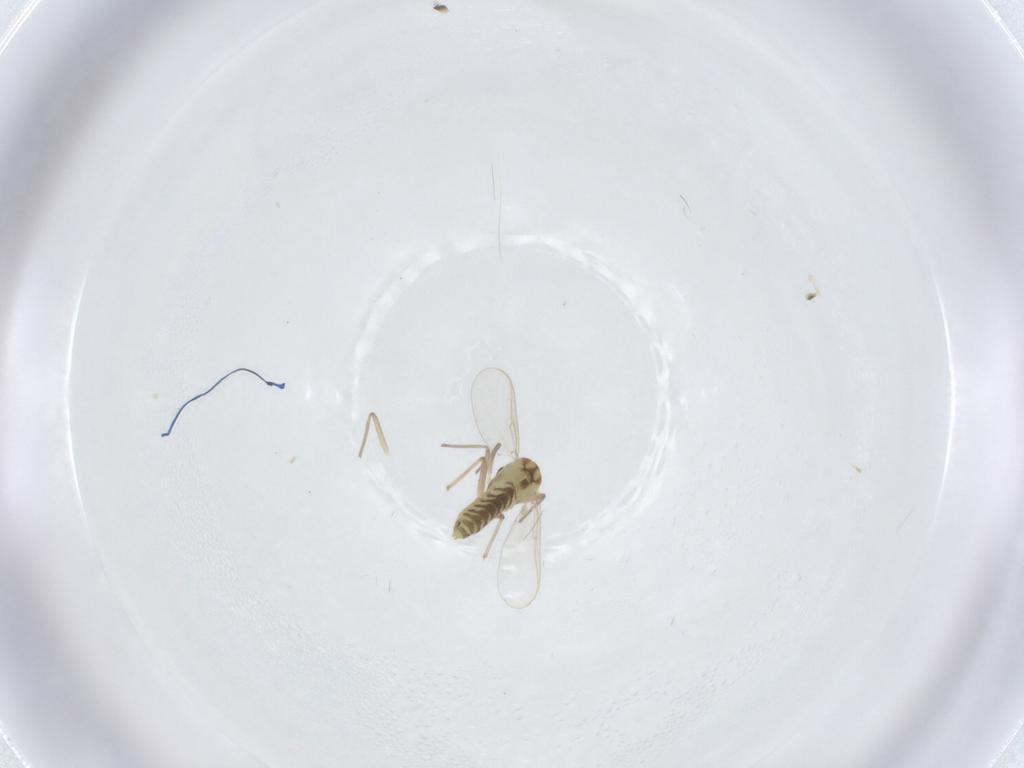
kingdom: Animalia
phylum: Arthropoda
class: Insecta
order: Diptera
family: Chironomidae
